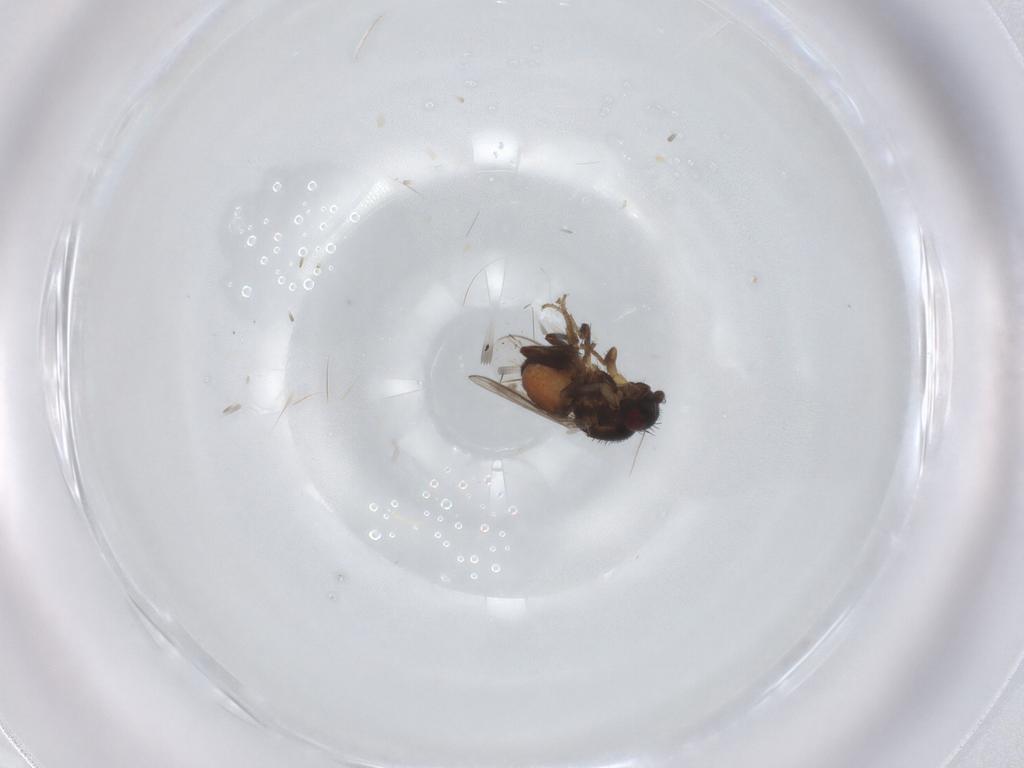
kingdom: Animalia
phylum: Arthropoda
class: Insecta
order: Diptera
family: Sphaeroceridae
